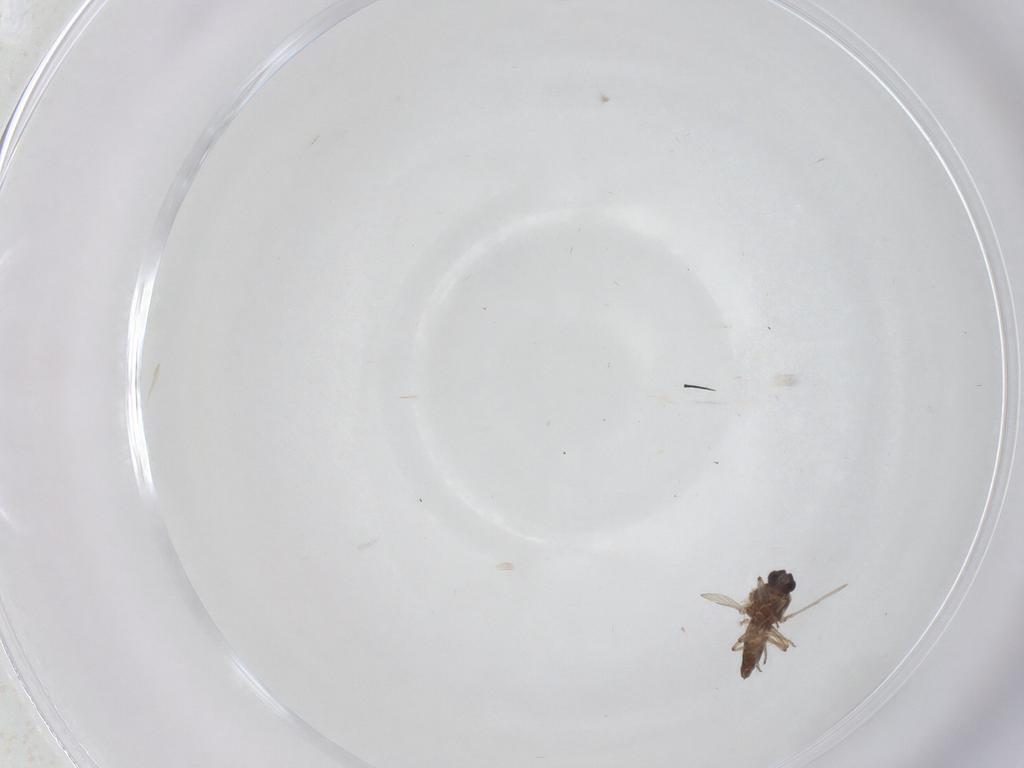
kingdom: Animalia
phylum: Arthropoda
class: Insecta
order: Diptera
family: Ceratopogonidae
